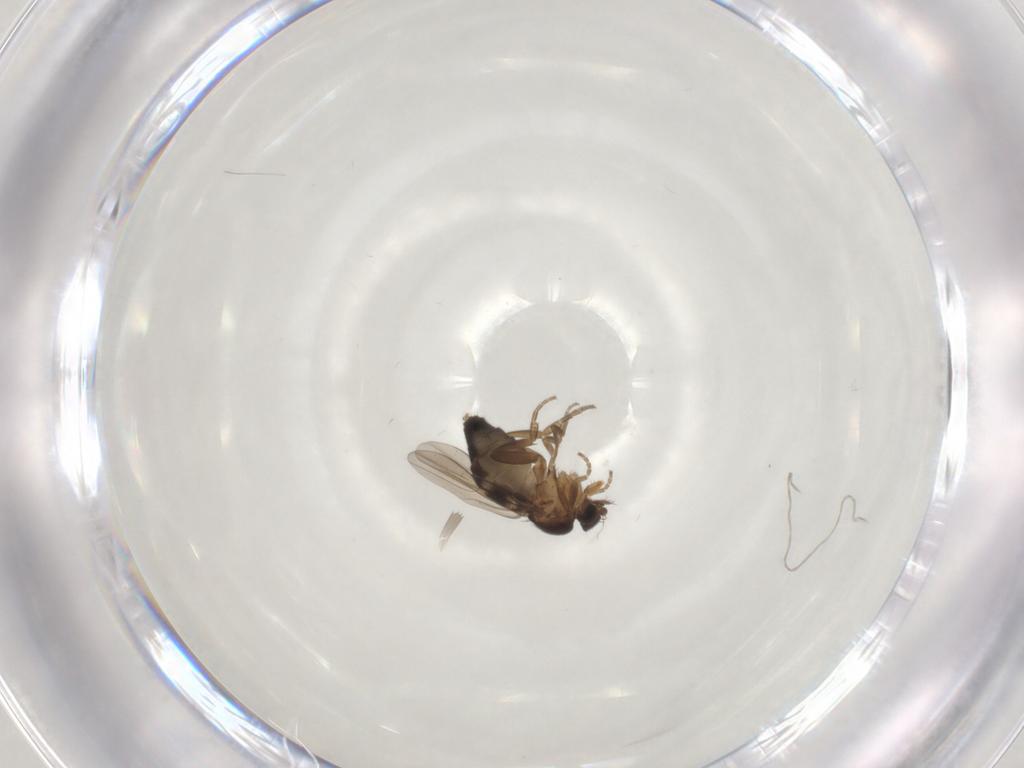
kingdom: Animalia
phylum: Arthropoda
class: Insecta
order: Diptera
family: Phoridae
